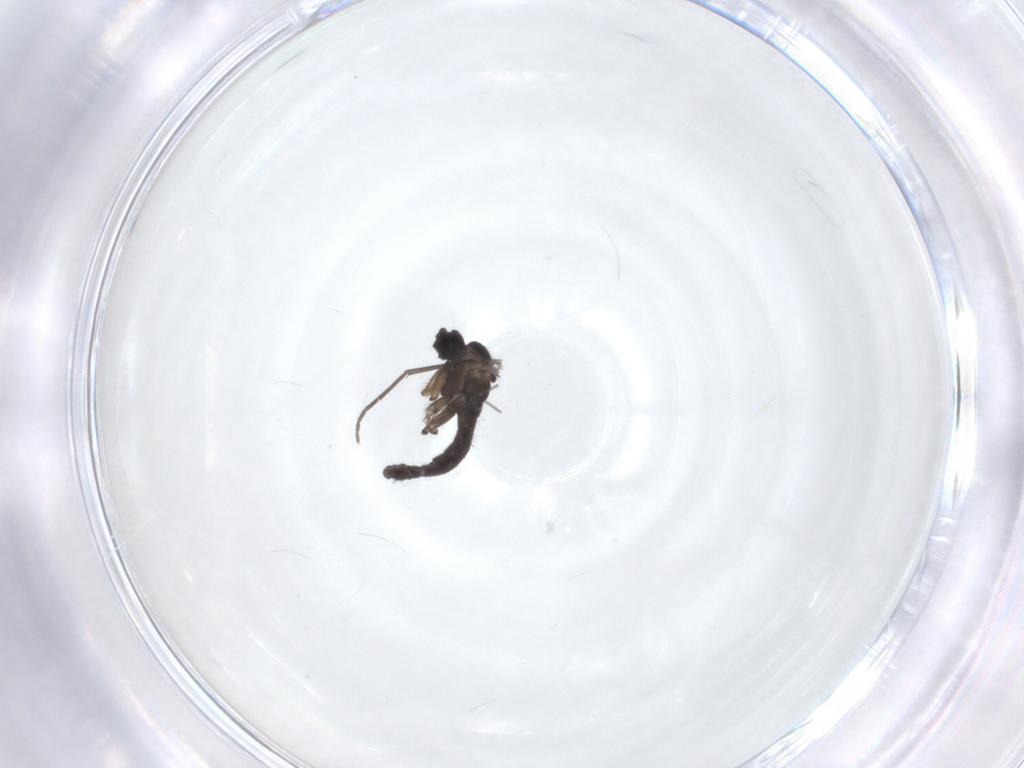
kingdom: Animalia
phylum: Arthropoda
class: Insecta
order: Diptera
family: Sciaridae
